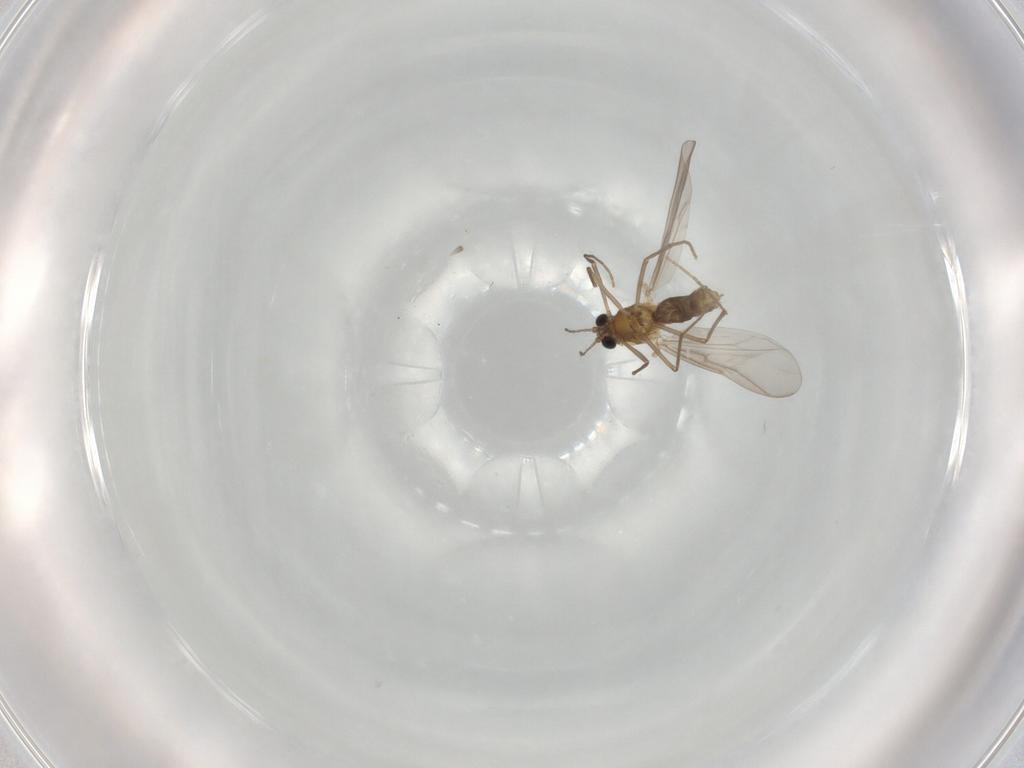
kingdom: Animalia
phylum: Arthropoda
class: Insecta
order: Diptera
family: Chironomidae
